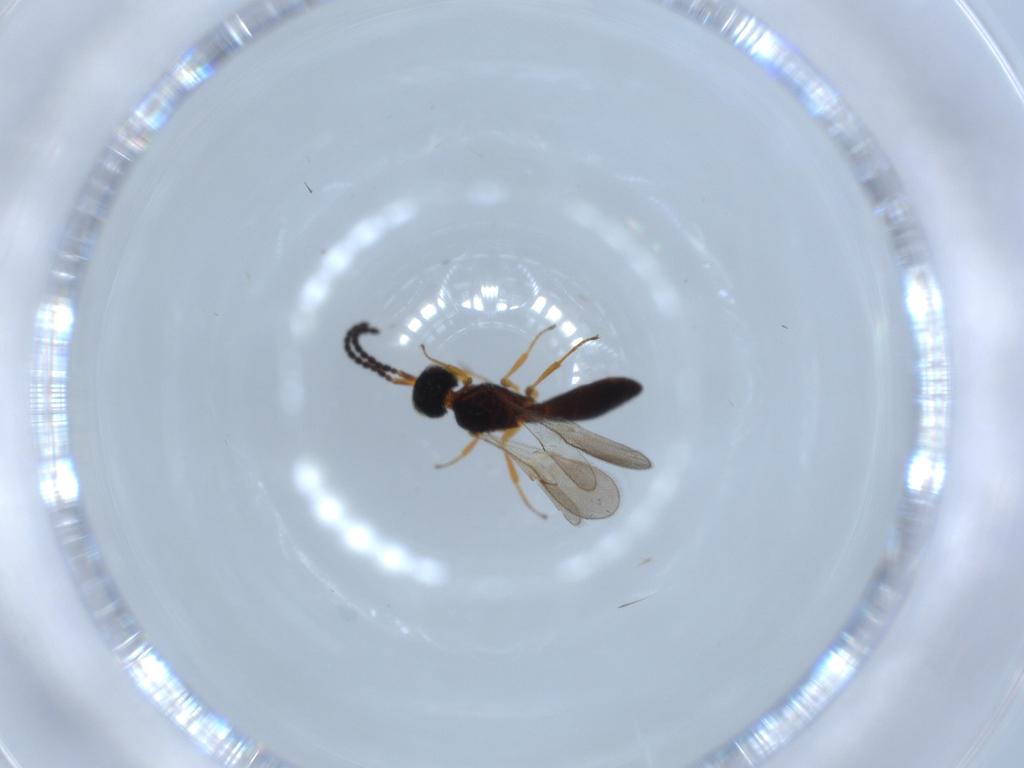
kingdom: Animalia
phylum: Arthropoda
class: Insecta
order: Hymenoptera
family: Scelionidae
